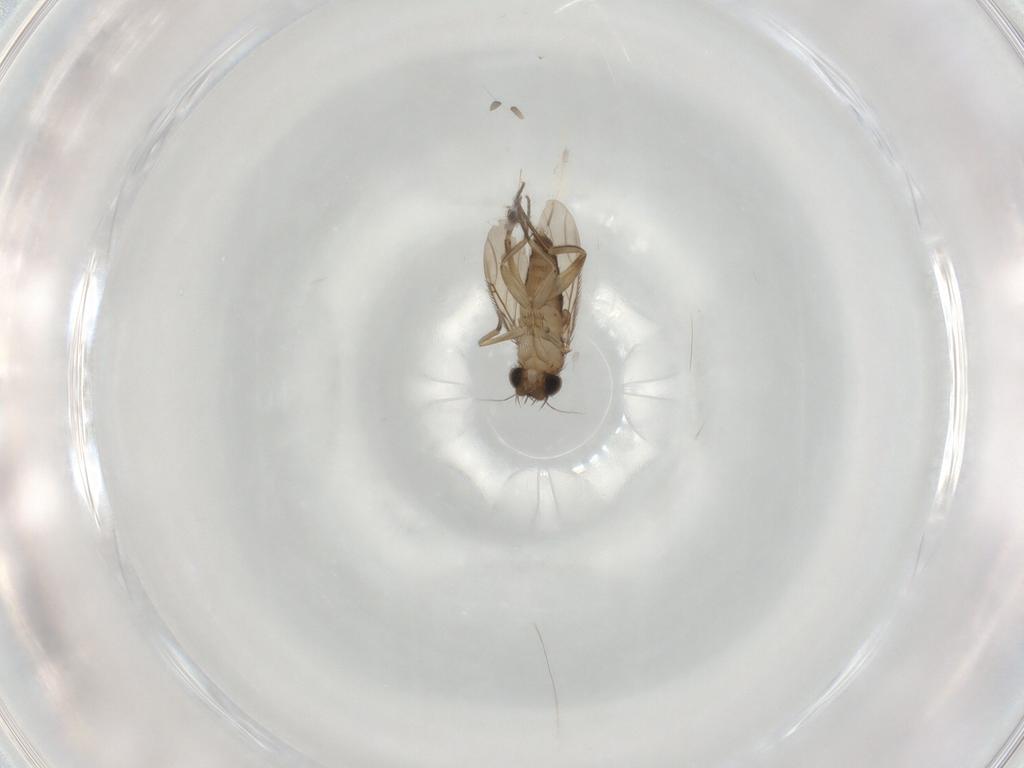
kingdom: Animalia
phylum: Arthropoda
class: Insecta
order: Diptera
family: Phoridae
